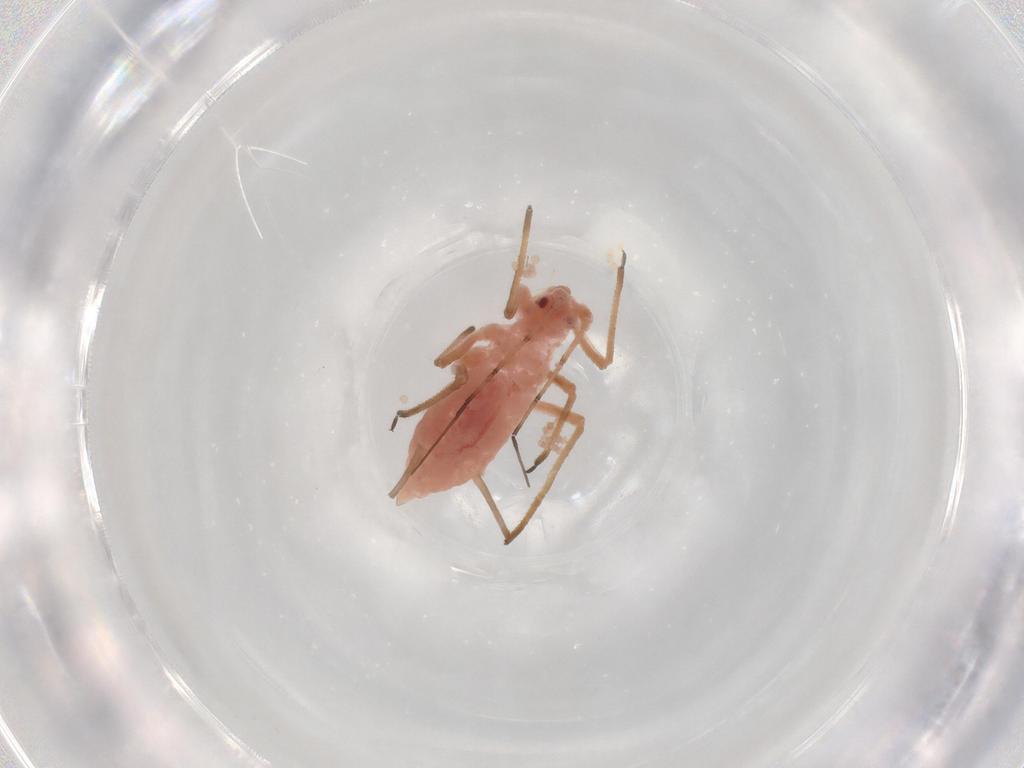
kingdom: Animalia
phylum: Arthropoda
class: Insecta
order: Hemiptera
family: Aphididae
